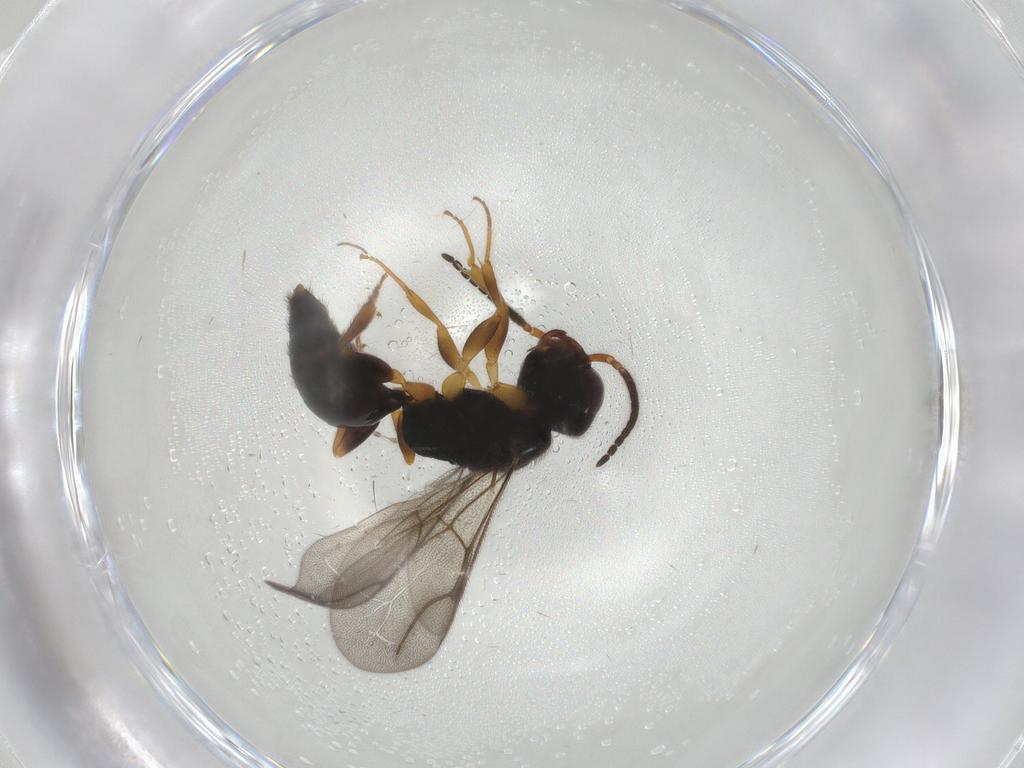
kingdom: Animalia
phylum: Arthropoda
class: Insecta
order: Hymenoptera
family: Bethylidae
